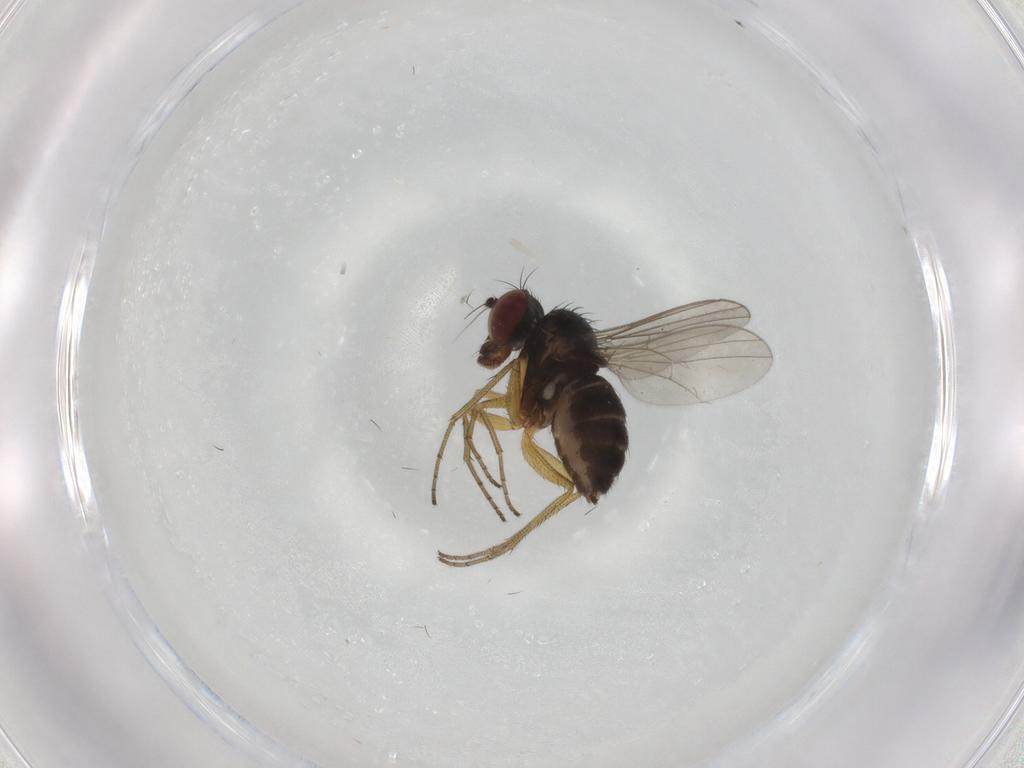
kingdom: Animalia
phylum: Arthropoda
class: Insecta
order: Diptera
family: Dolichopodidae
